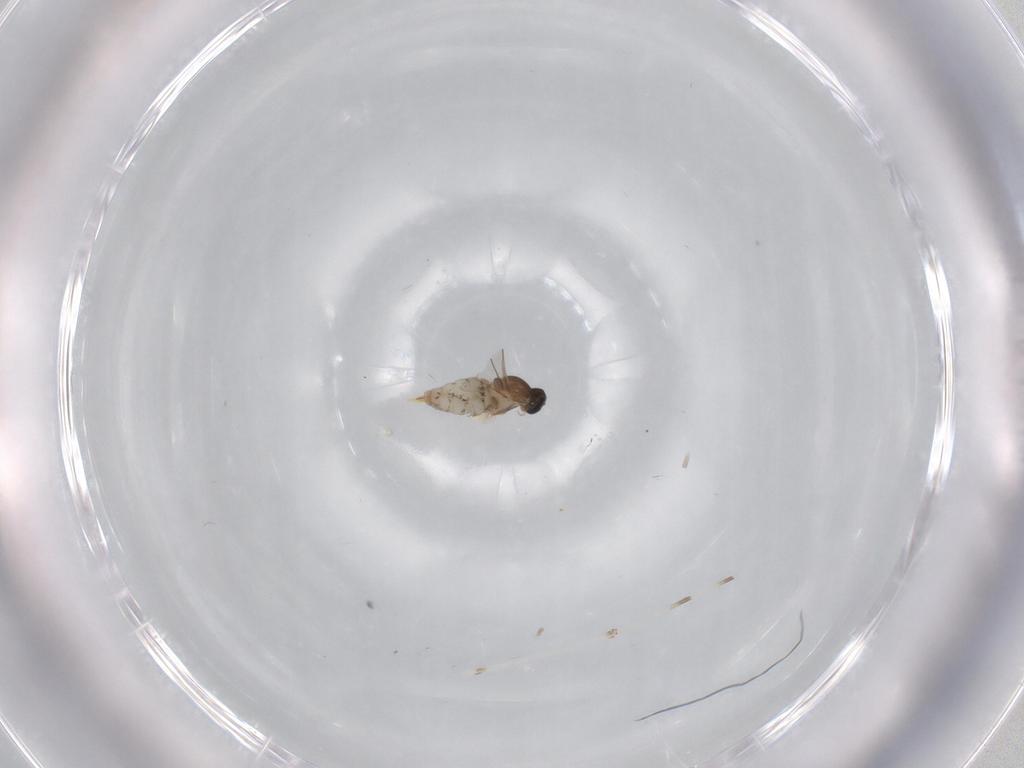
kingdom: Animalia
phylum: Arthropoda
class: Insecta
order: Diptera
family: Cecidomyiidae
